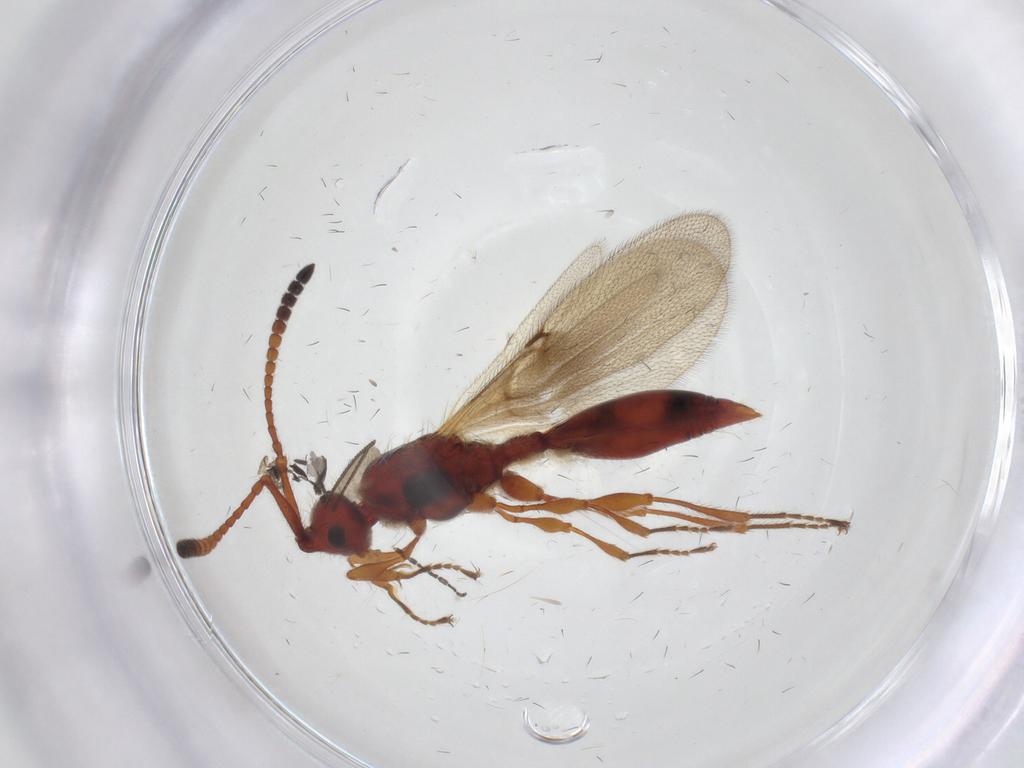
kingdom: Animalia
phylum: Arthropoda
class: Insecta
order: Hymenoptera
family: Diapriidae
